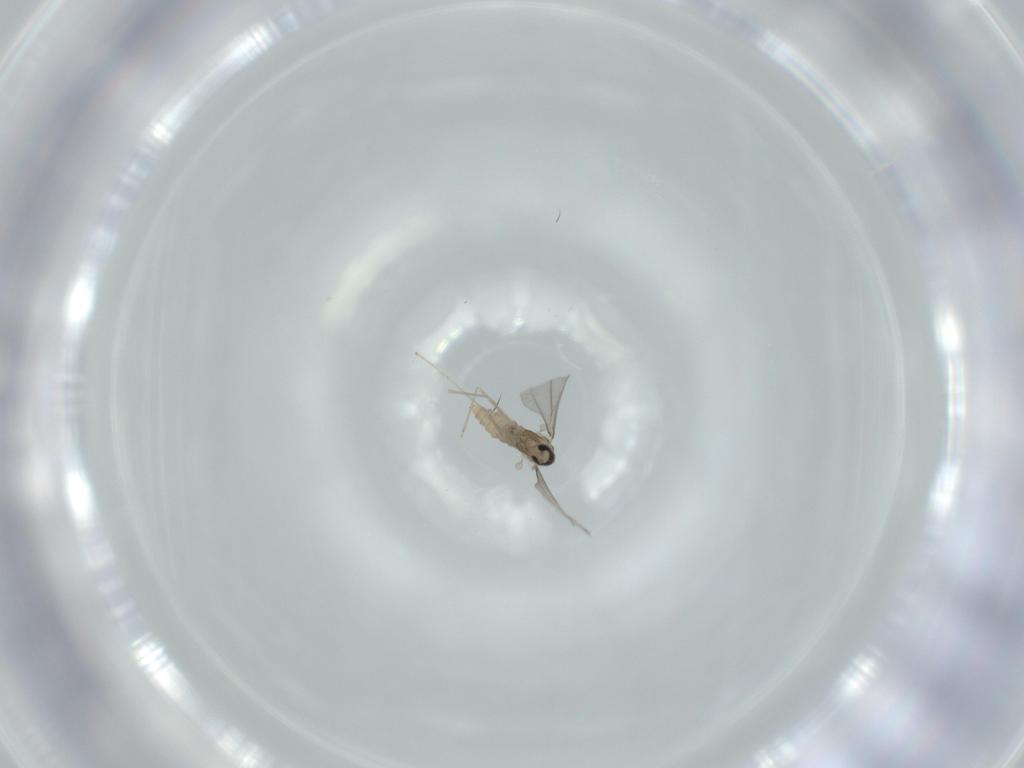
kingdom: Animalia
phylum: Arthropoda
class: Insecta
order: Diptera
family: Cecidomyiidae
